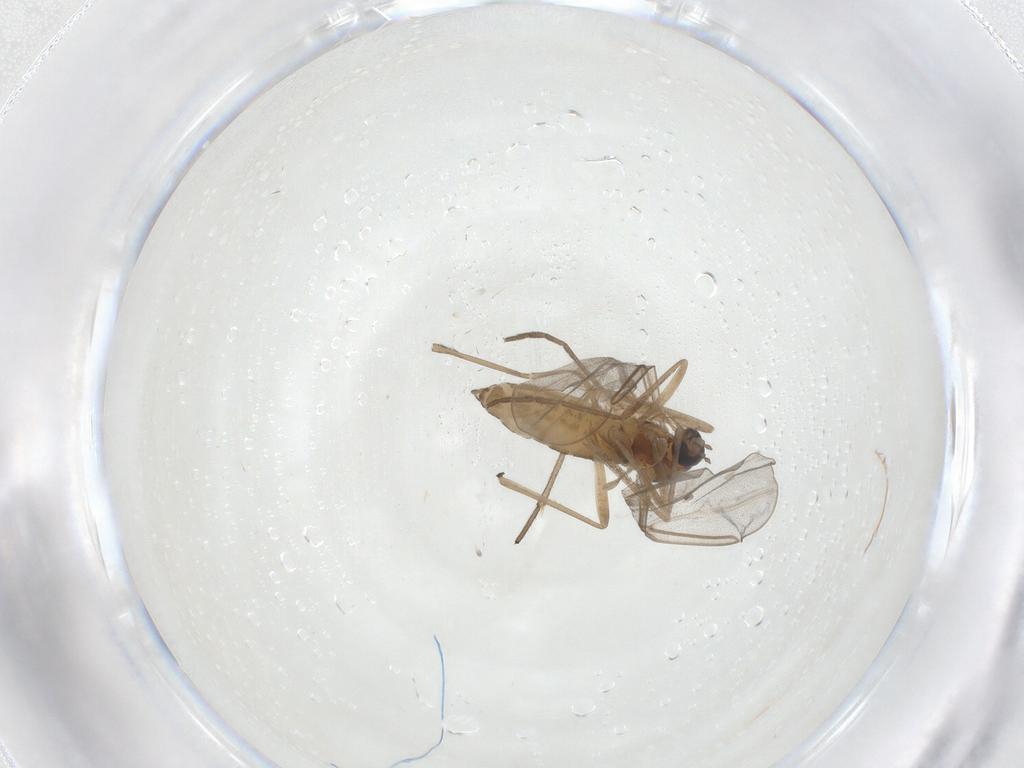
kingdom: Animalia
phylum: Arthropoda
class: Insecta
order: Diptera
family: Cecidomyiidae
